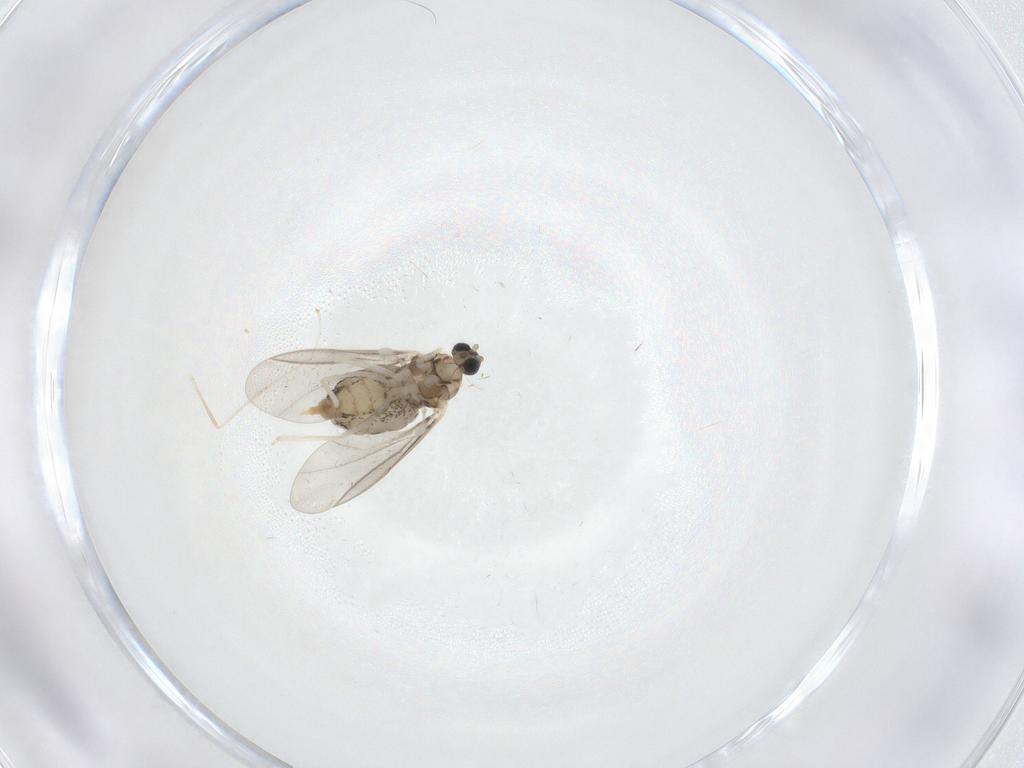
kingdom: Animalia
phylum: Arthropoda
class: Insecta
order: Diptera
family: Cecidomyiidae
